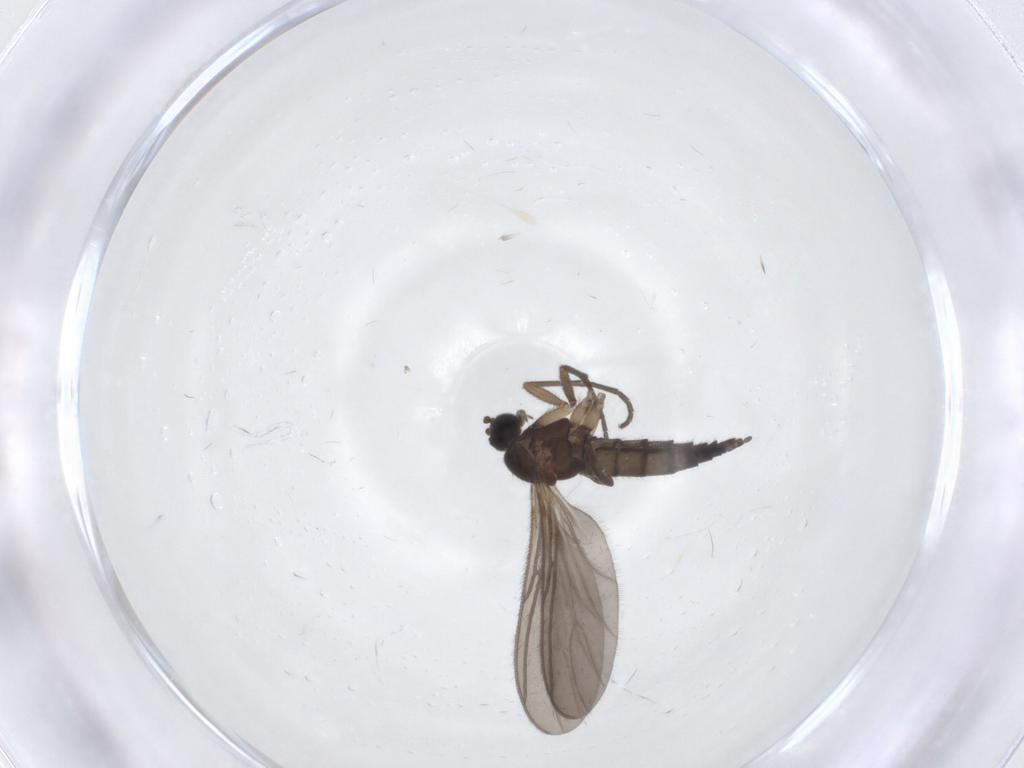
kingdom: Animalia
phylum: Arthropoda
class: Insecta
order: Diptera
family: Sciaridae
